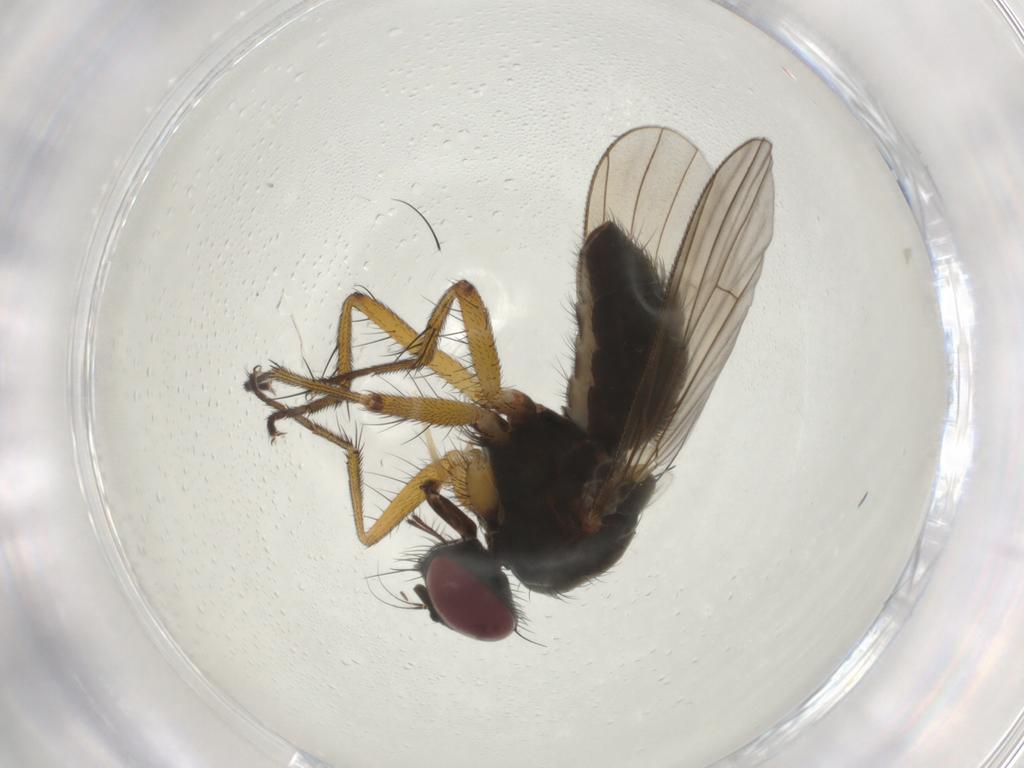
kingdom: Animalia
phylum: Arthropoda
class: Insecta
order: Diptera
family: Muscidae
